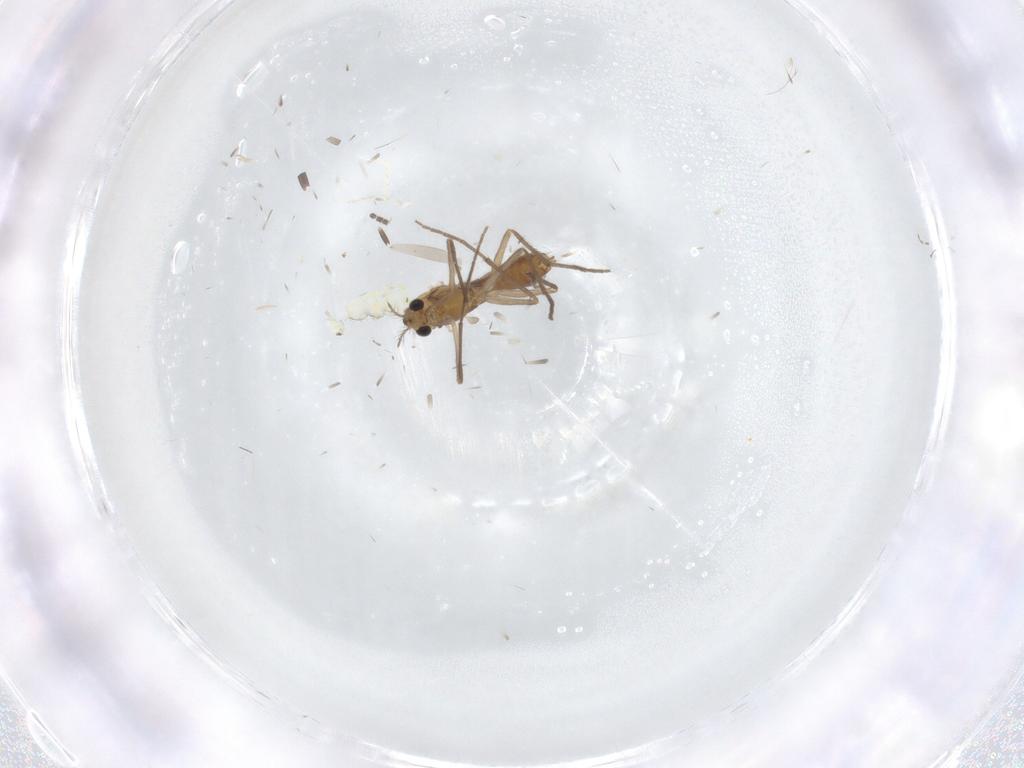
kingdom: Animalia
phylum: Arthropoda
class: Insecta
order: Diptera
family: Chironomidae
